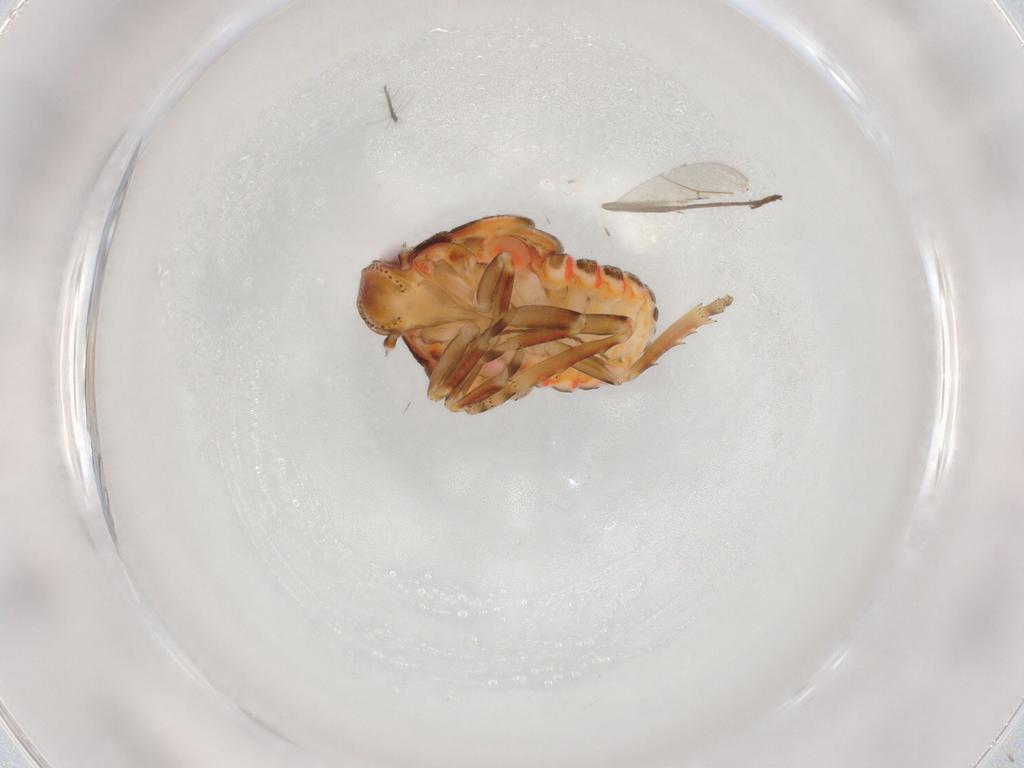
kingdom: Animalia
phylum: Arthropoda
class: Insecta
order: Hemiptera
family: Flatidae
